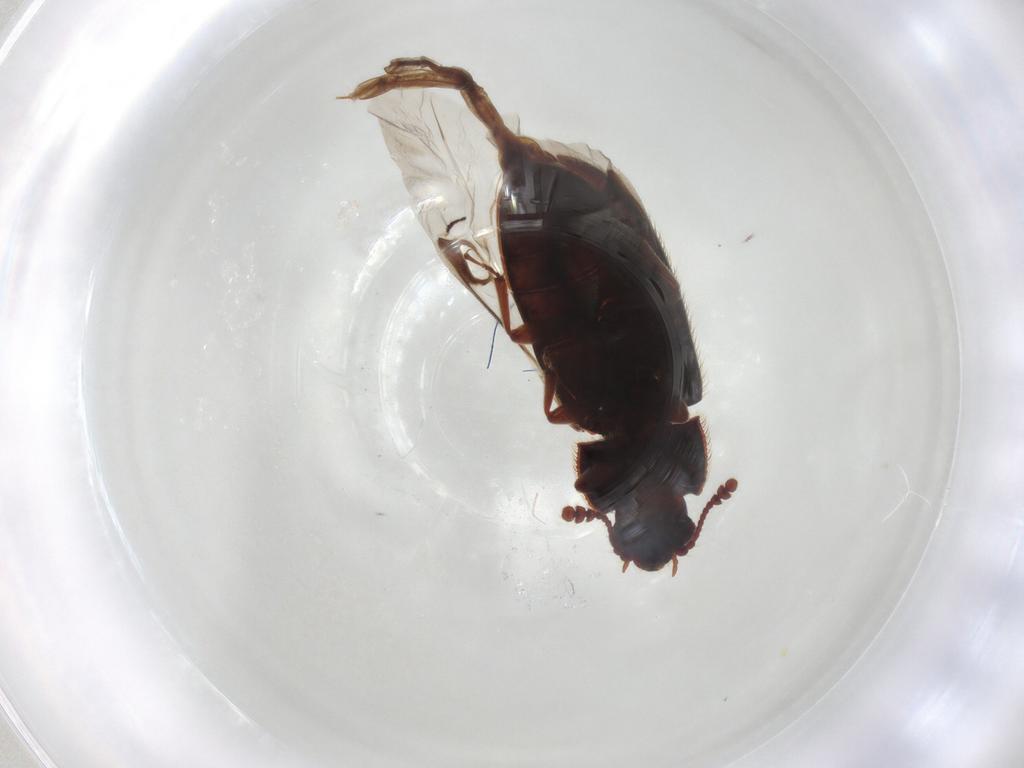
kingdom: Animalia
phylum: Arthropoda
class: Insecta
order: Coleoptera
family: Biphyllidae
